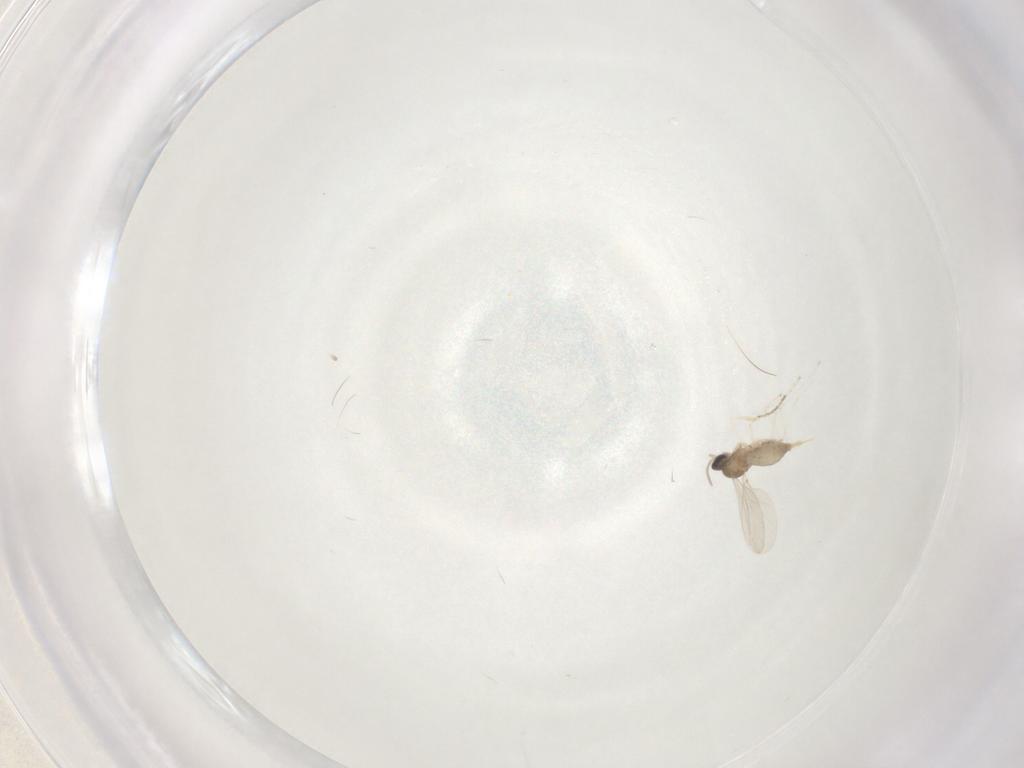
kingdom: Animalia
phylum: Arthropoda
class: Insecta
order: Diptera
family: Cecidomyiidae
